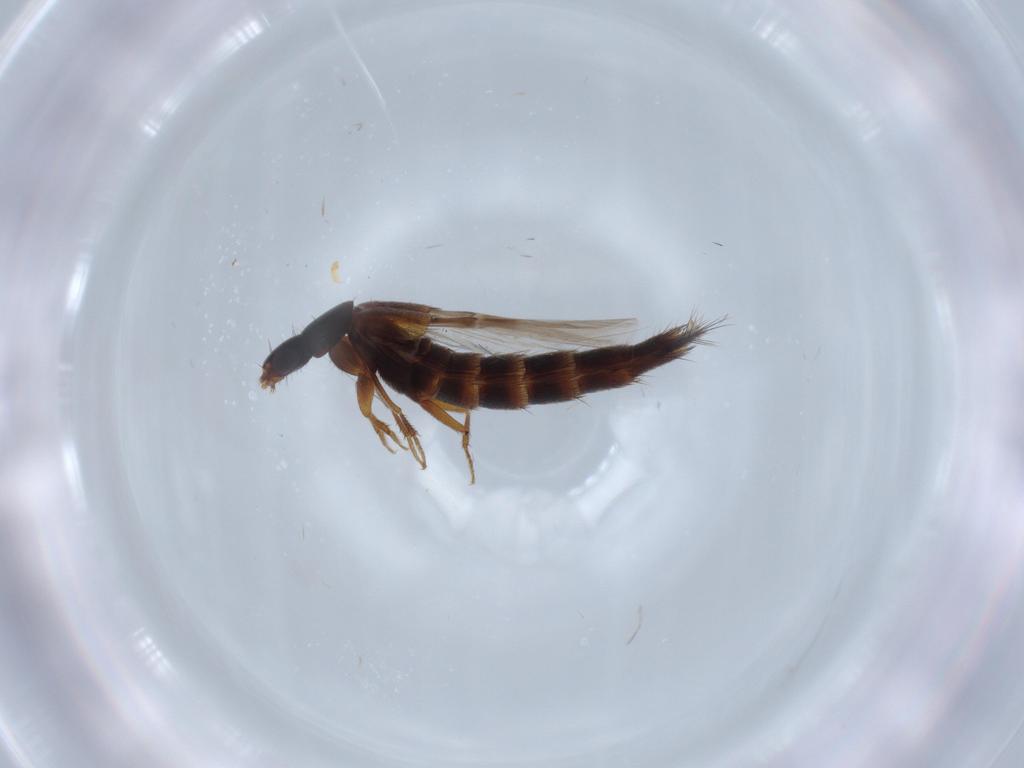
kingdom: Animalia
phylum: Arthropoda
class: Insecta
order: Coleoptera
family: Staphylinidae
